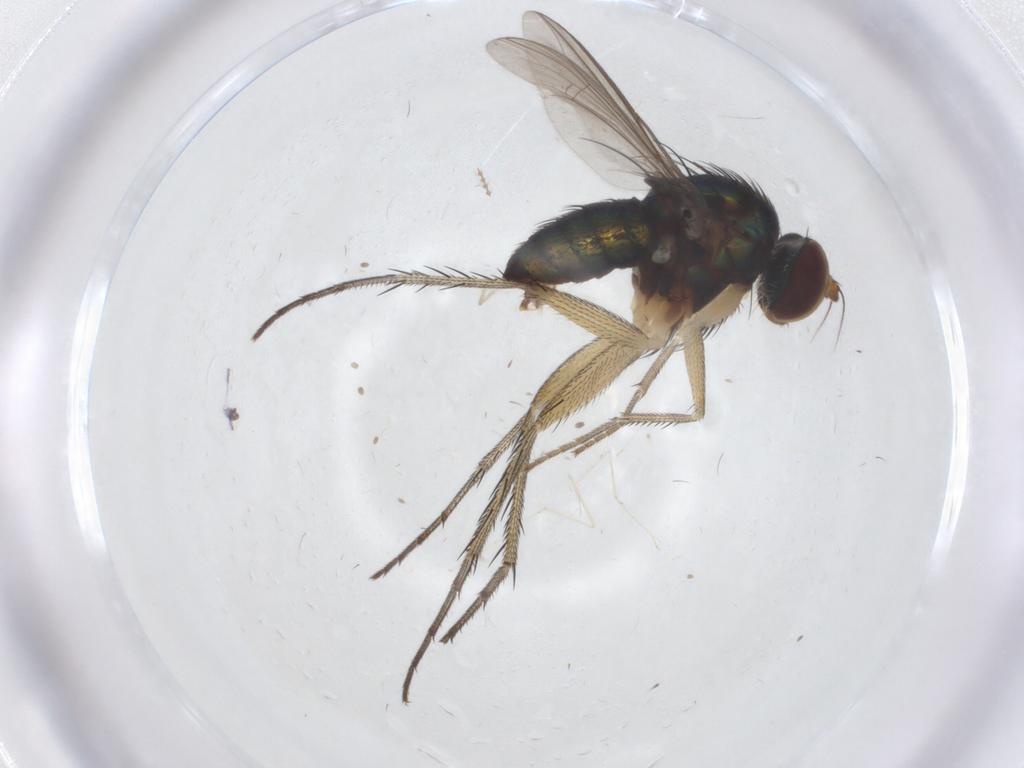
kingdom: Animalia
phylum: Arthropoda
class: Insecta
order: Diptera
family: Dolichopodidae
